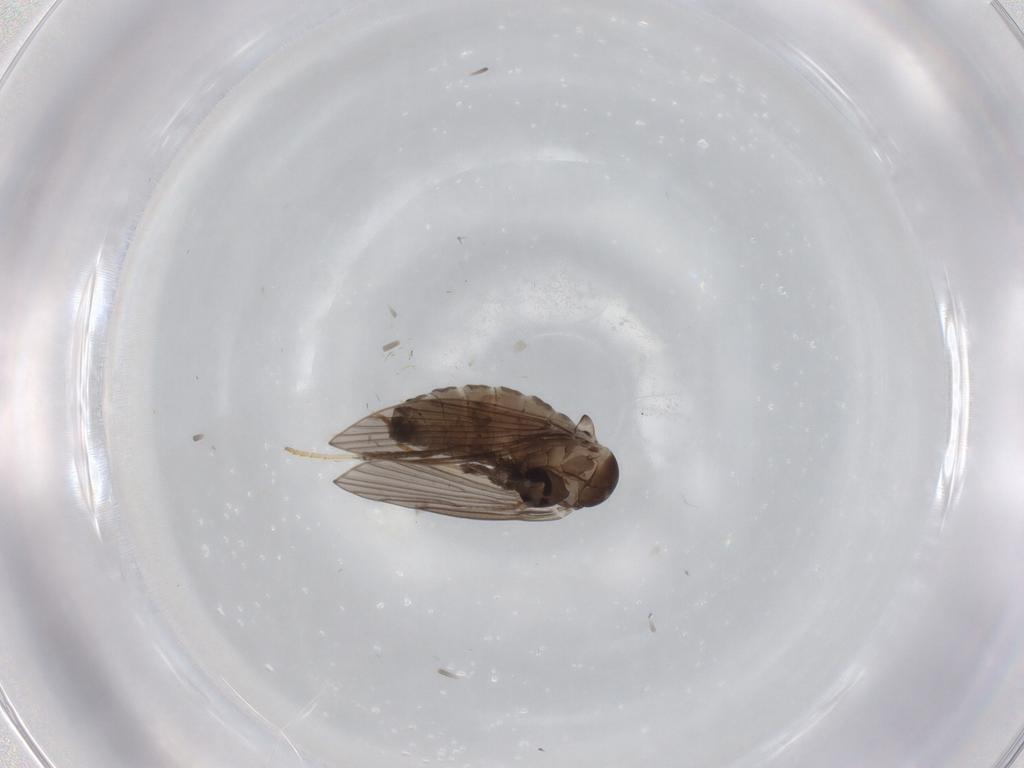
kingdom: Animalia
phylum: Arthropoda
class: Insecta
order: Diptera
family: Psychodidae
